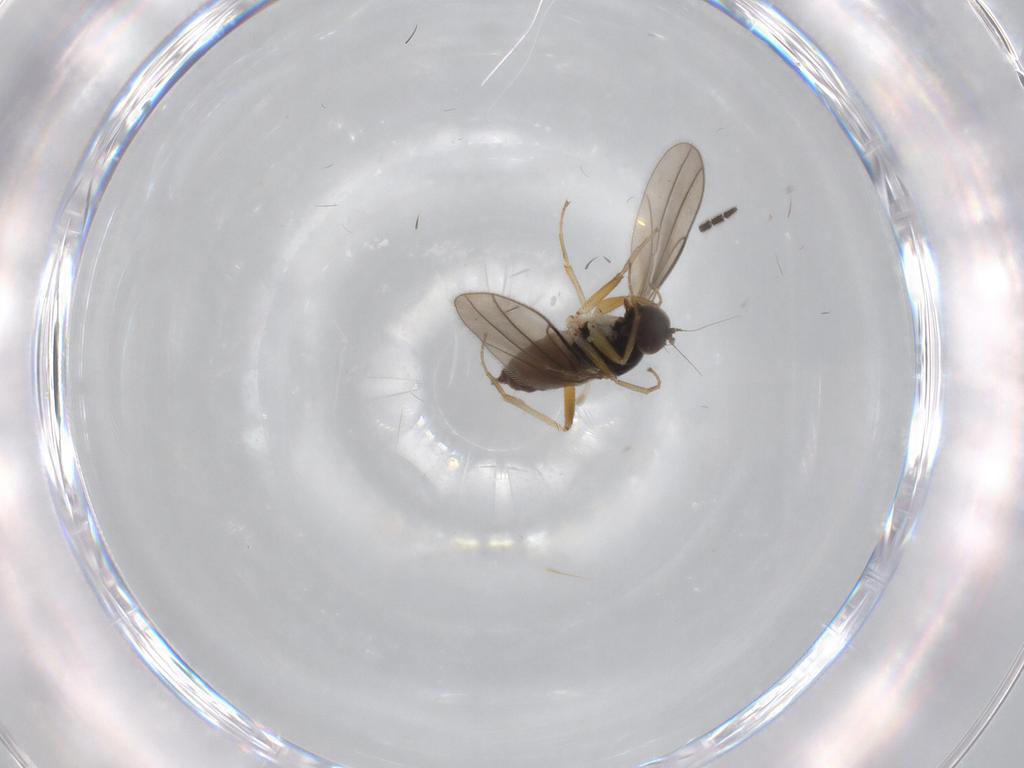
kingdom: Animalia
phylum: Arthropoda
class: Insecta
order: Diptera
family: Hybotidae
